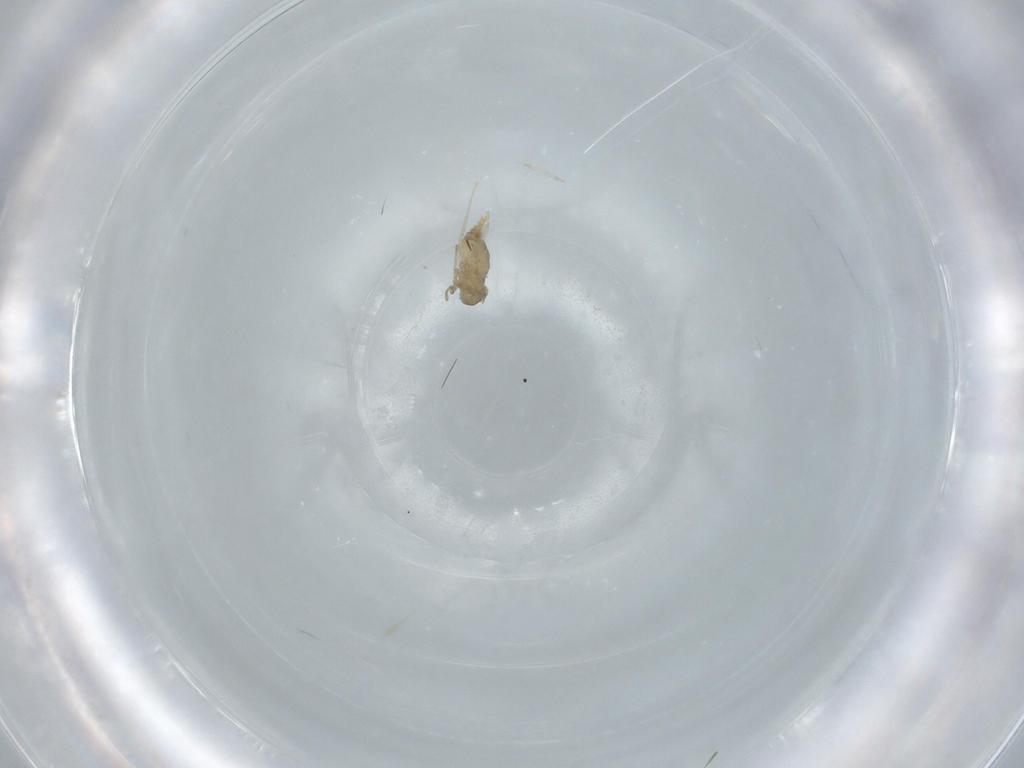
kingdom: Animalia
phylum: Arthropoda
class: Insecta
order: Diptera
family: Cecidomyiidae
